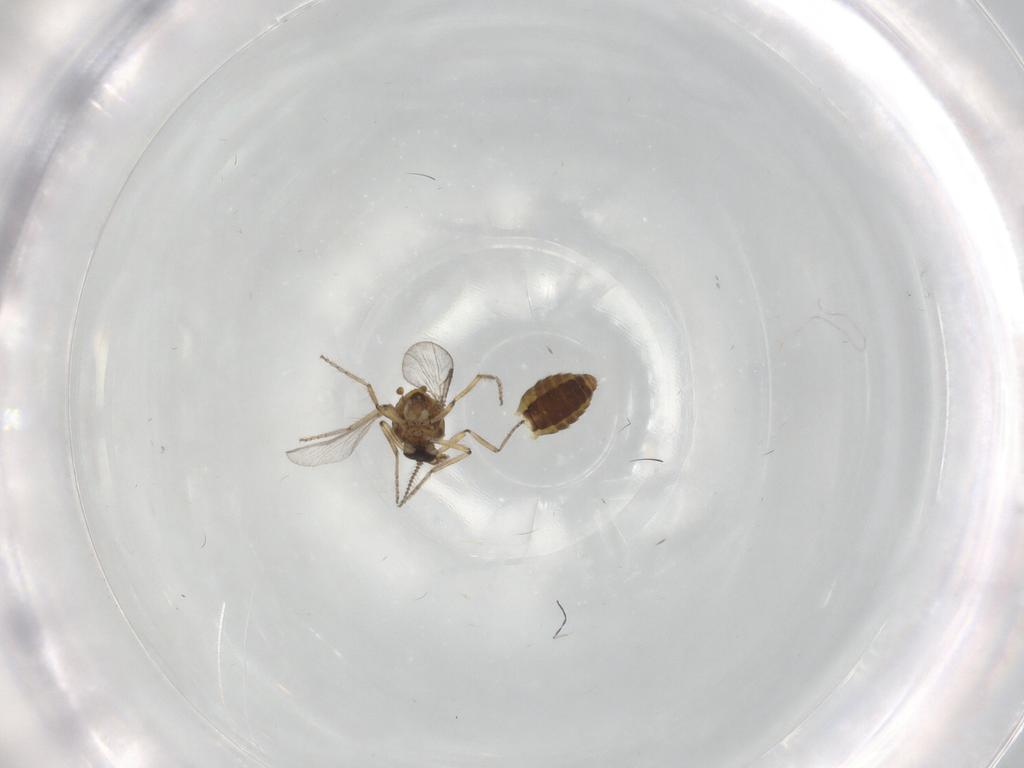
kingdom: Animalia
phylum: Arthropoda
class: Insecta
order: Diptera
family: Ceratopogonidae
